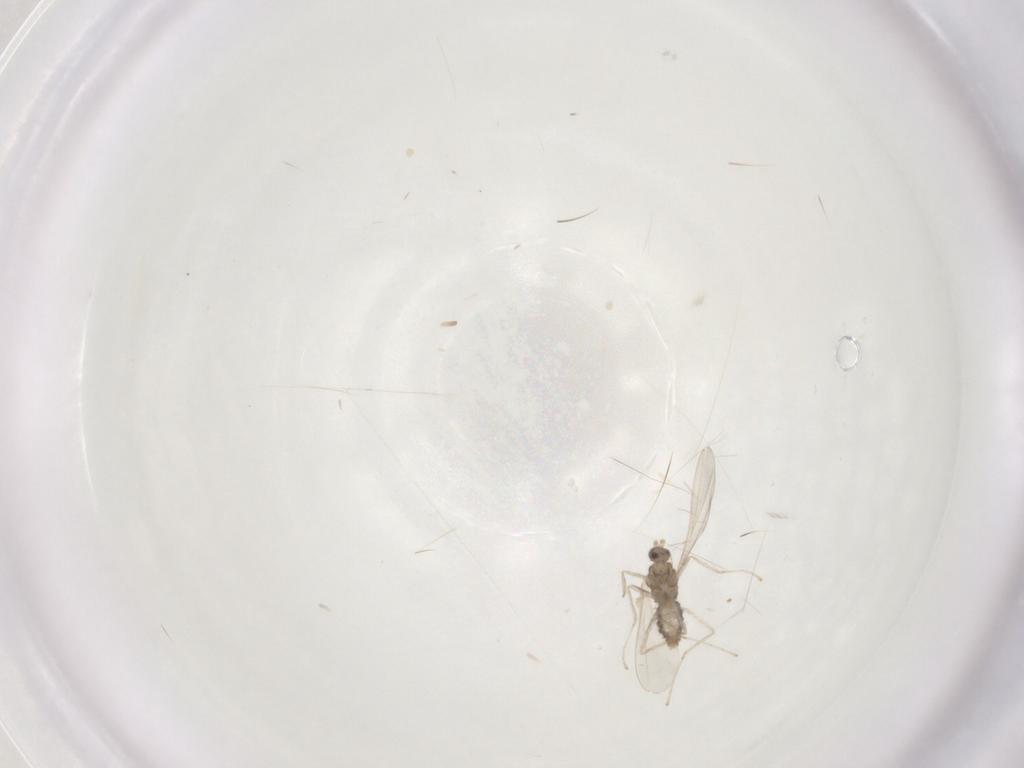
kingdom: Animalia
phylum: Arthropoda
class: Insecta
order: Diptera
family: Cecidomyiidae
